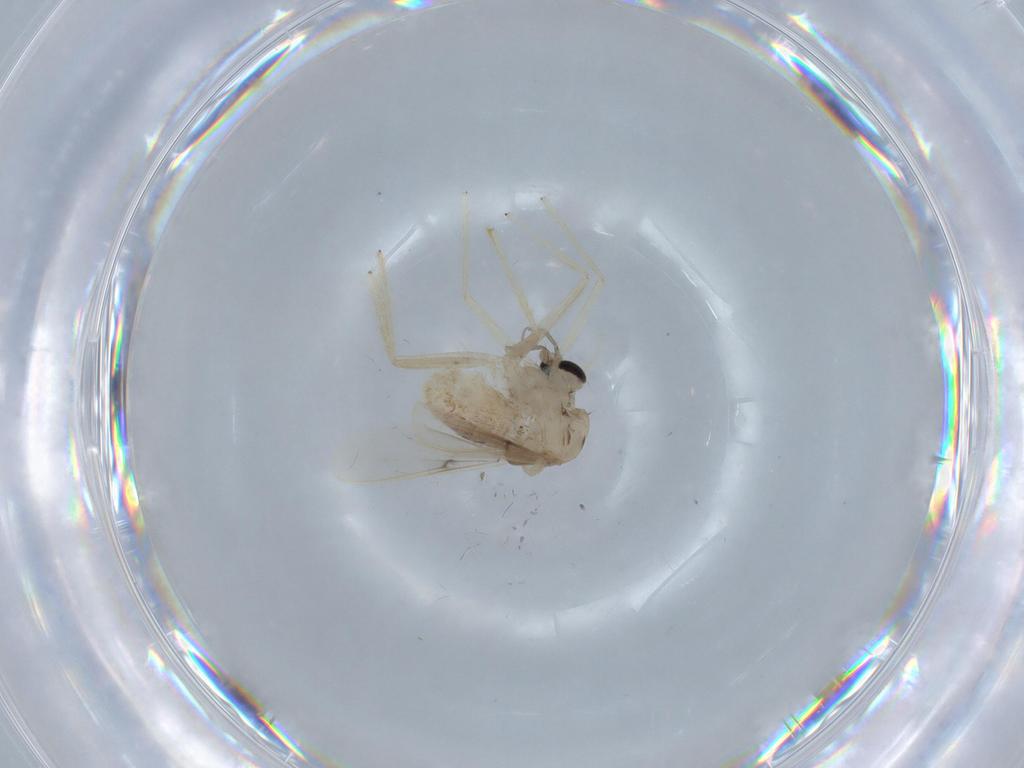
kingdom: Animalia
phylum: Arthropoda
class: Insecta
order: Diptera
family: Chironomidae
